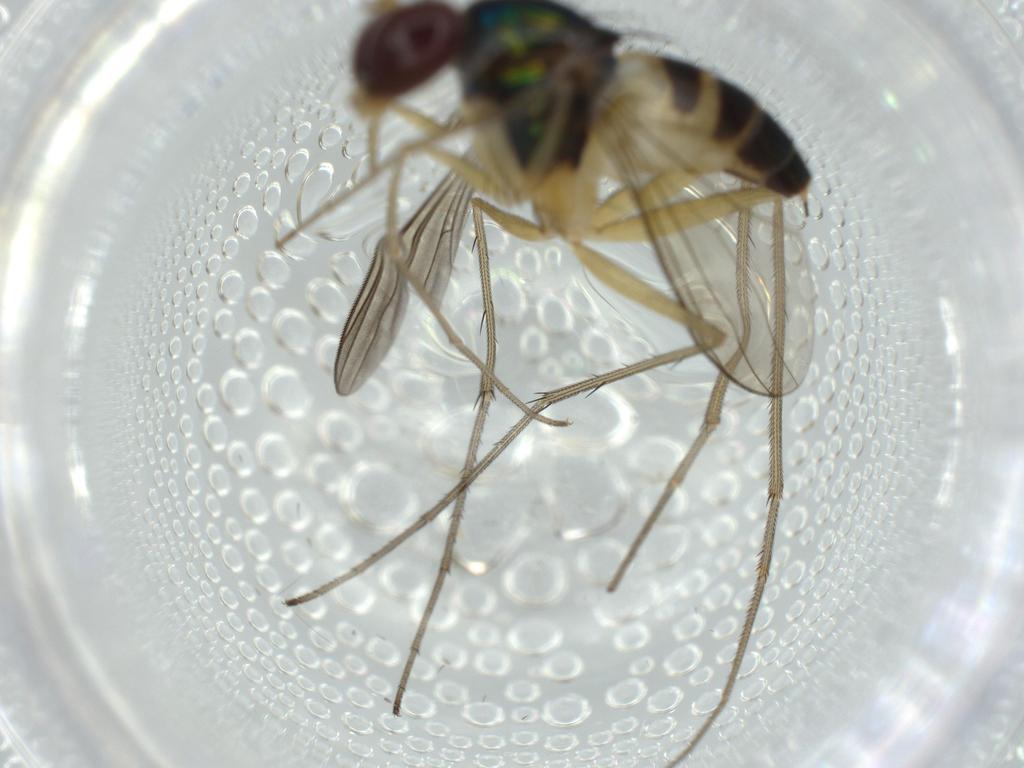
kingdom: Animalia
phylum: Arthropoda
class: Insecta
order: Diptera
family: Dolichopodidae
